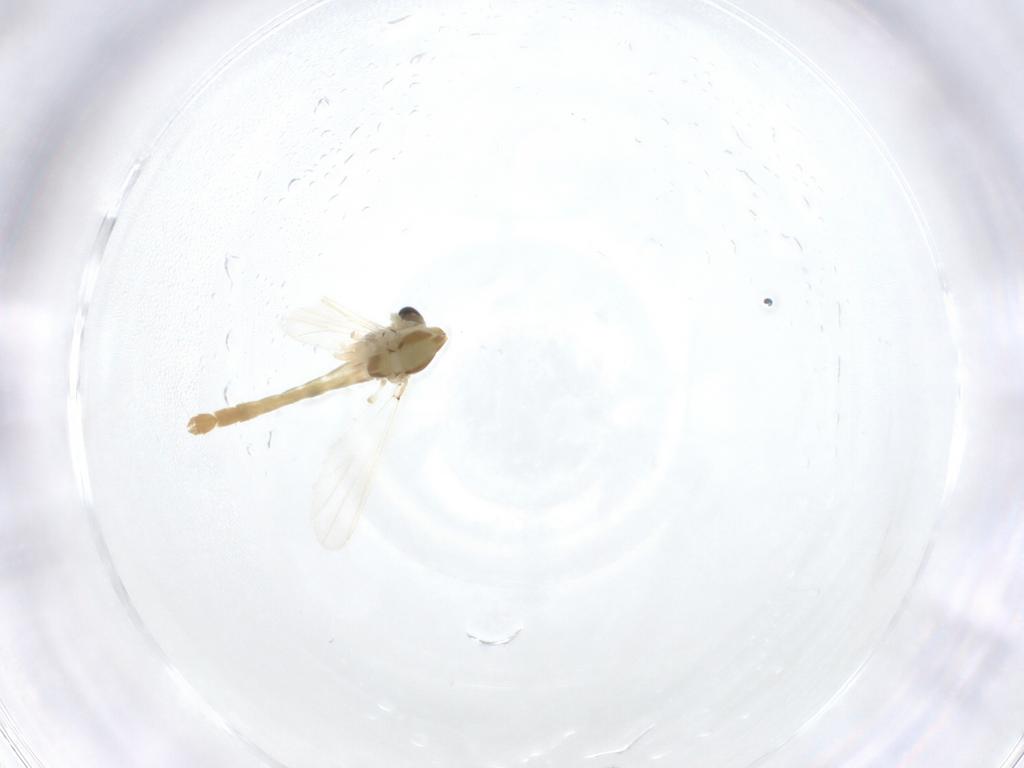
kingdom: Animalia
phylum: Arthropoda
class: Insecta
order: Diptera
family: Chironomidae
